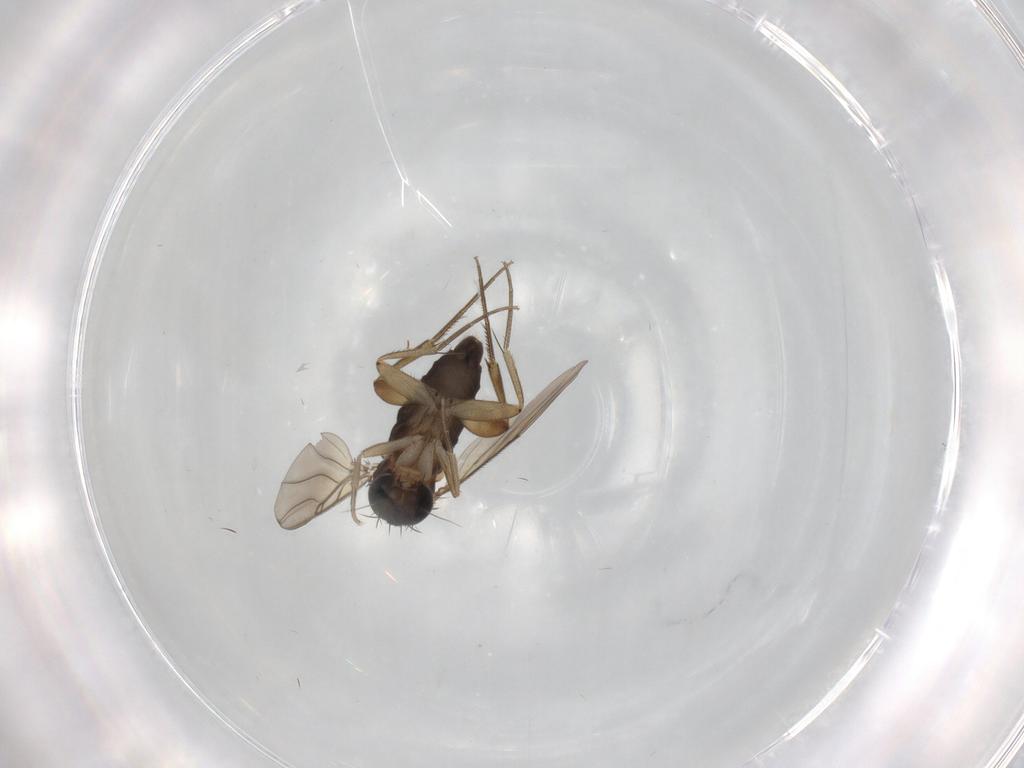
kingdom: Animalia
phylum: Arthropoda
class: Insecta
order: Diptera
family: Phoridae
